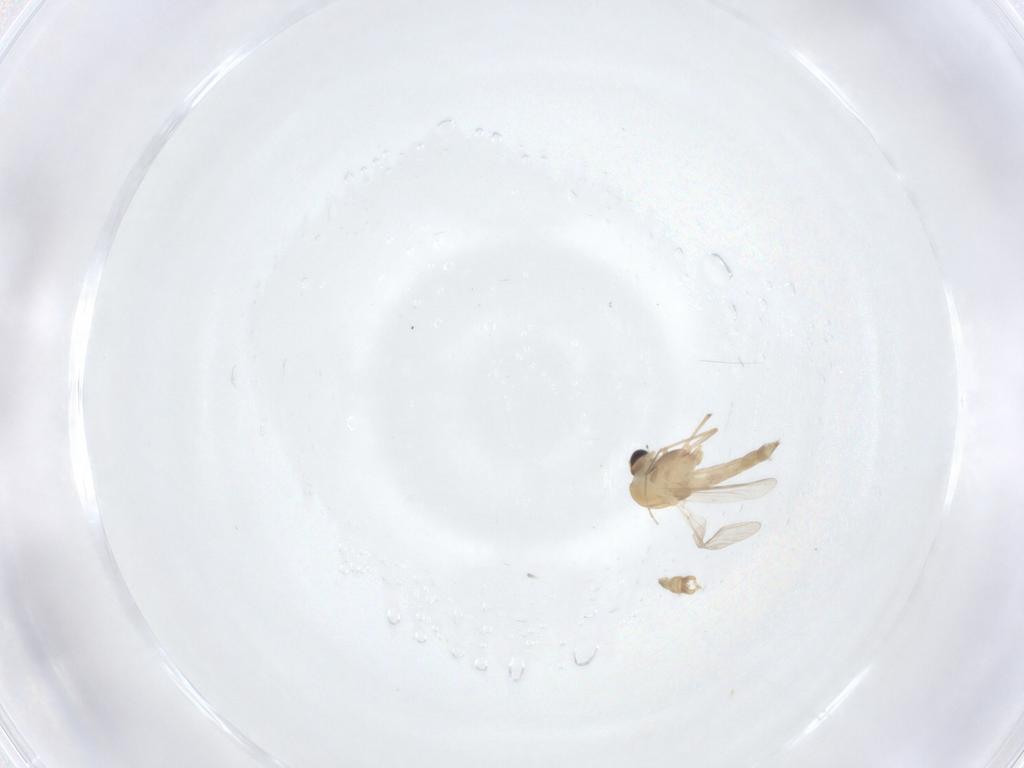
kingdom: Animalia
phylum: Arthropoda
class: Insecta
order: Diptera
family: Chironomidae
